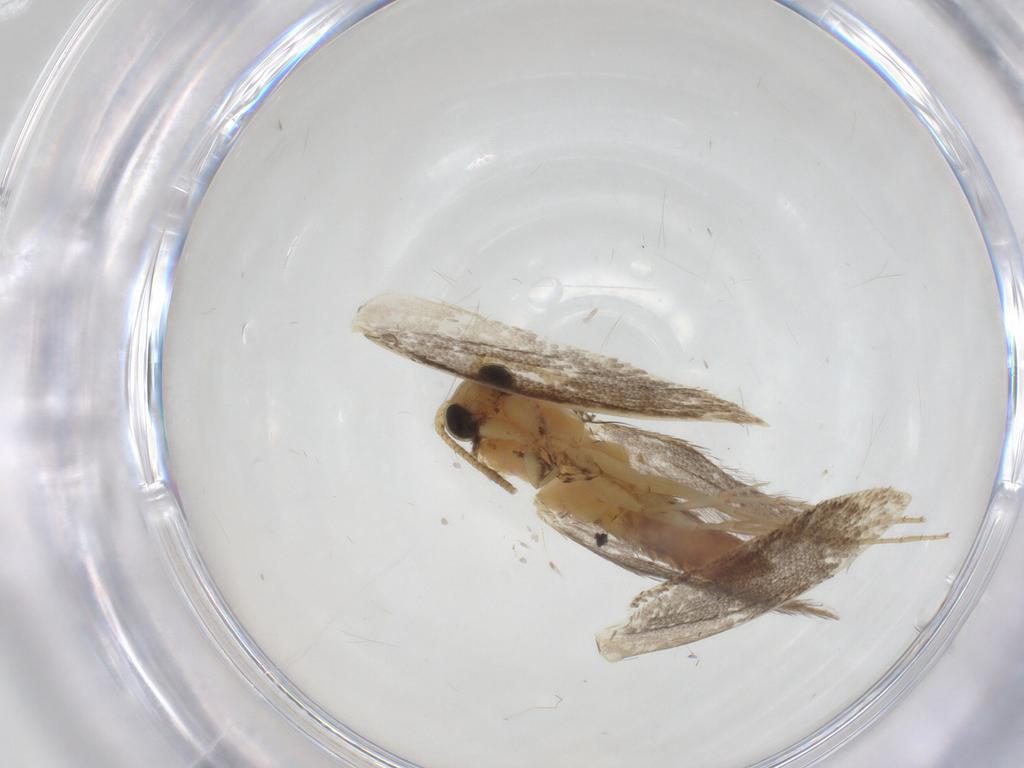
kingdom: Animalia
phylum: Arthropoda
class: Insecta
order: Lepidoptera
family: Tineidae
